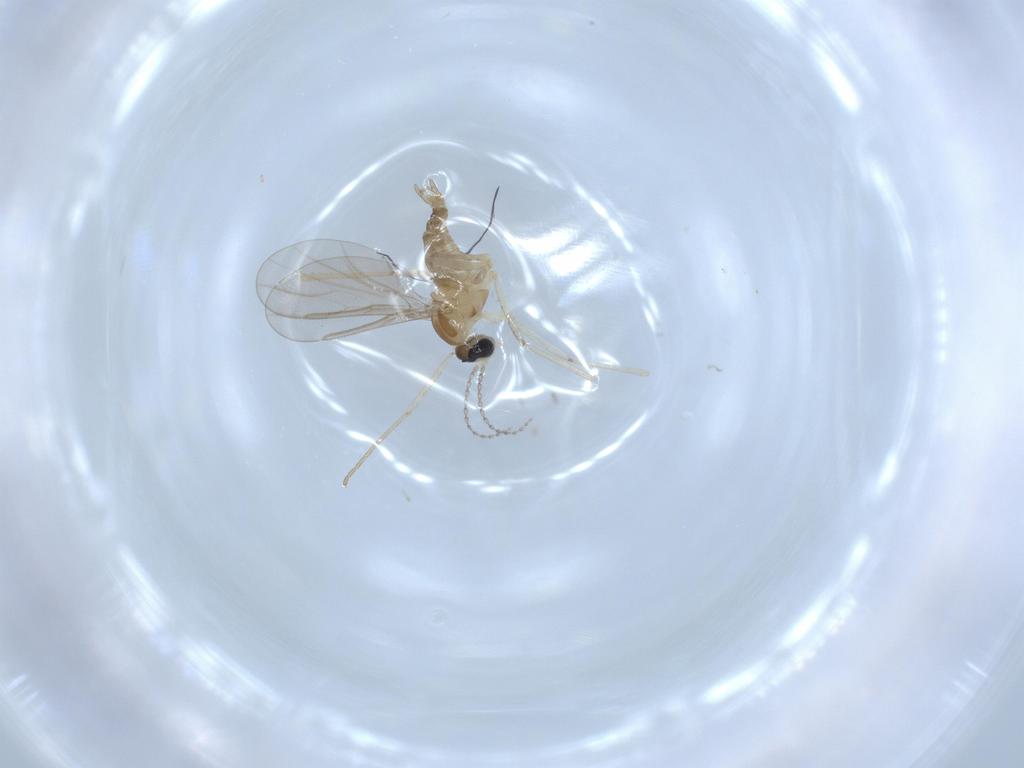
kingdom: Animalia
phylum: Arthropoda
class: Insecta
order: Diptera
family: Cecidomyiidae
